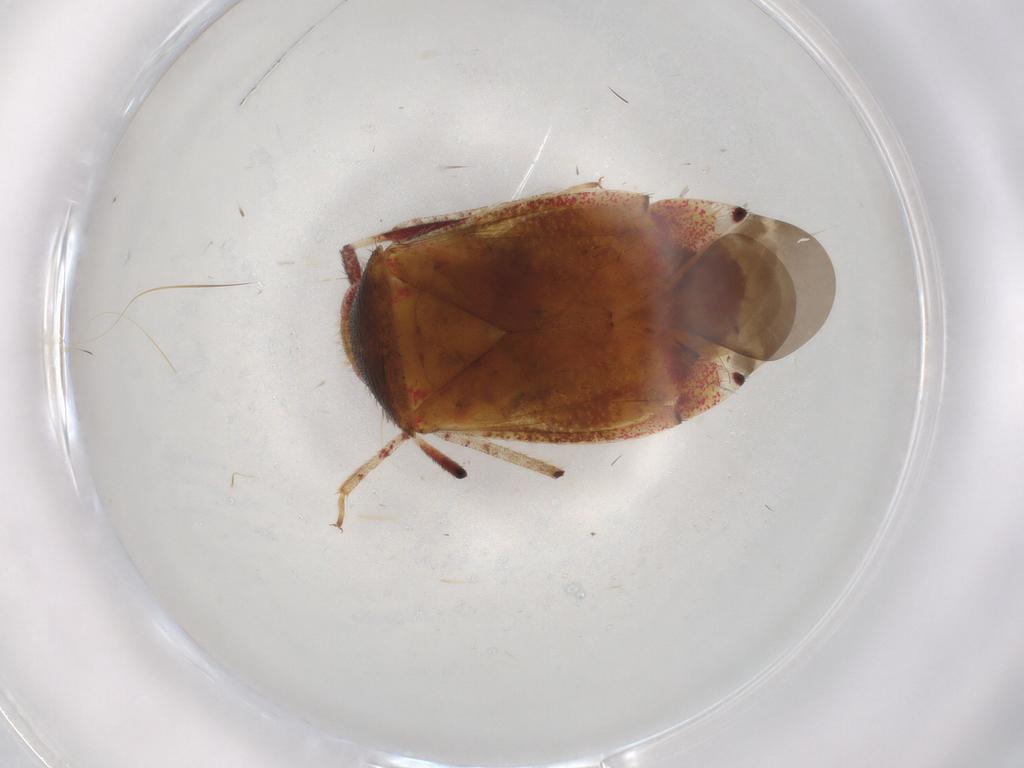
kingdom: Animalia
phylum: Arthropoda
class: Insecta
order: Hemiptera
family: Miridae
